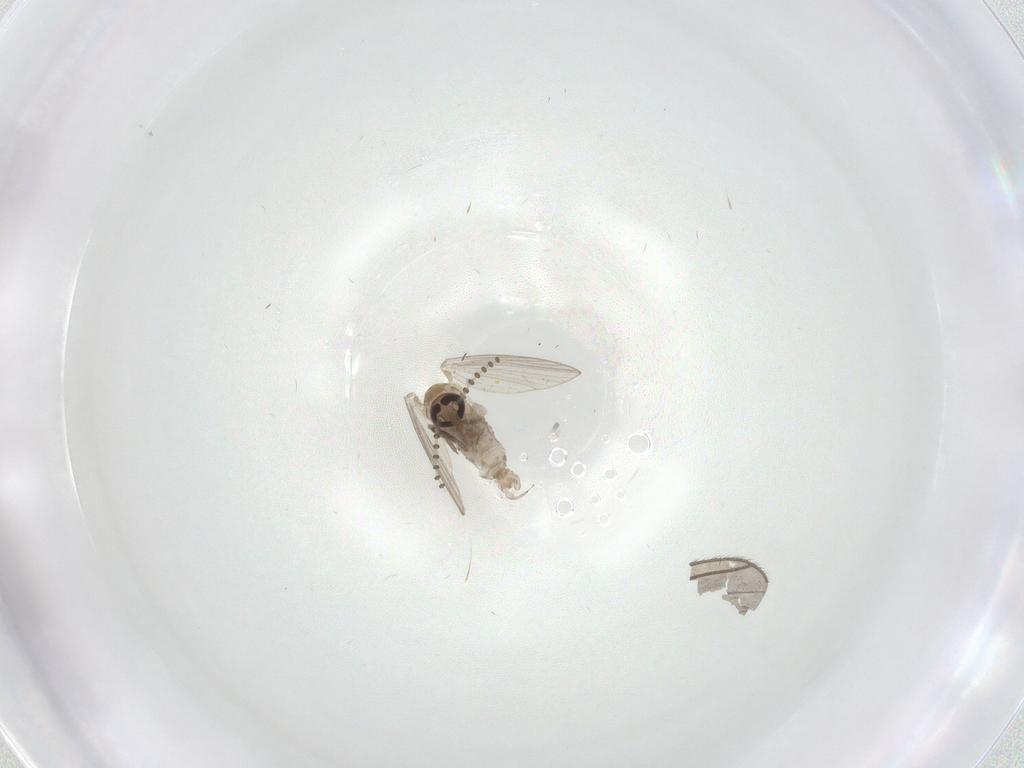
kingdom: Animalia
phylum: Arthropoda
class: Insecta
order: Diptera
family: Psychodidae
